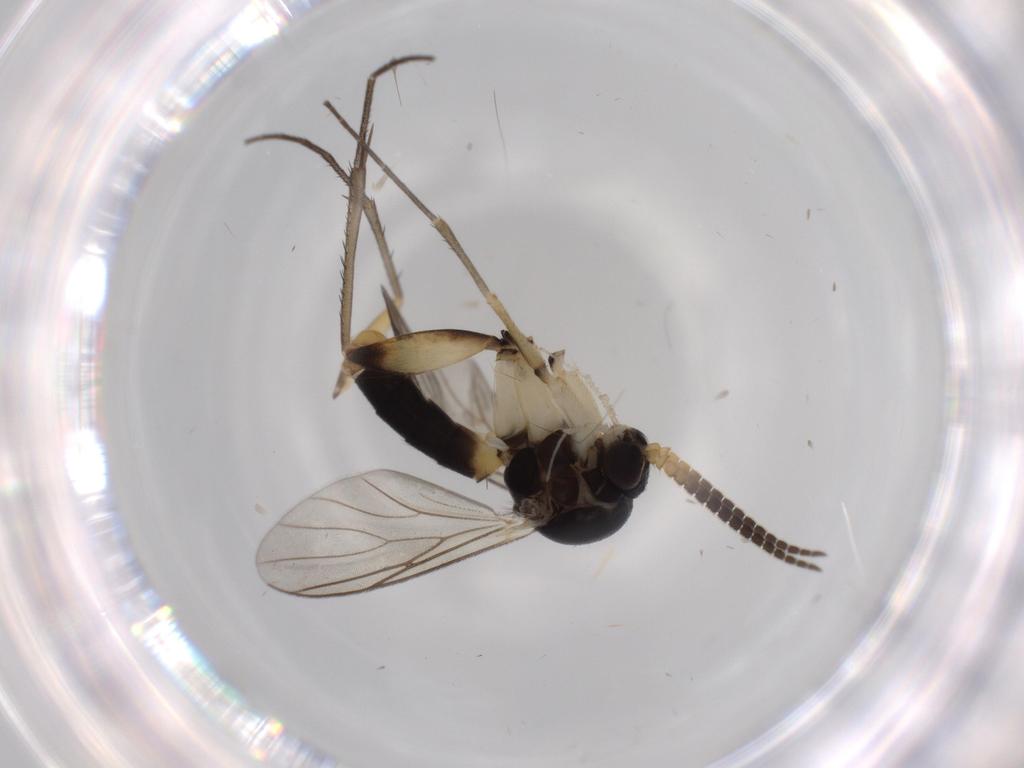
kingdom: Animalia
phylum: Arthropoda
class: Insecta
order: Diptera
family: Sciaridae
